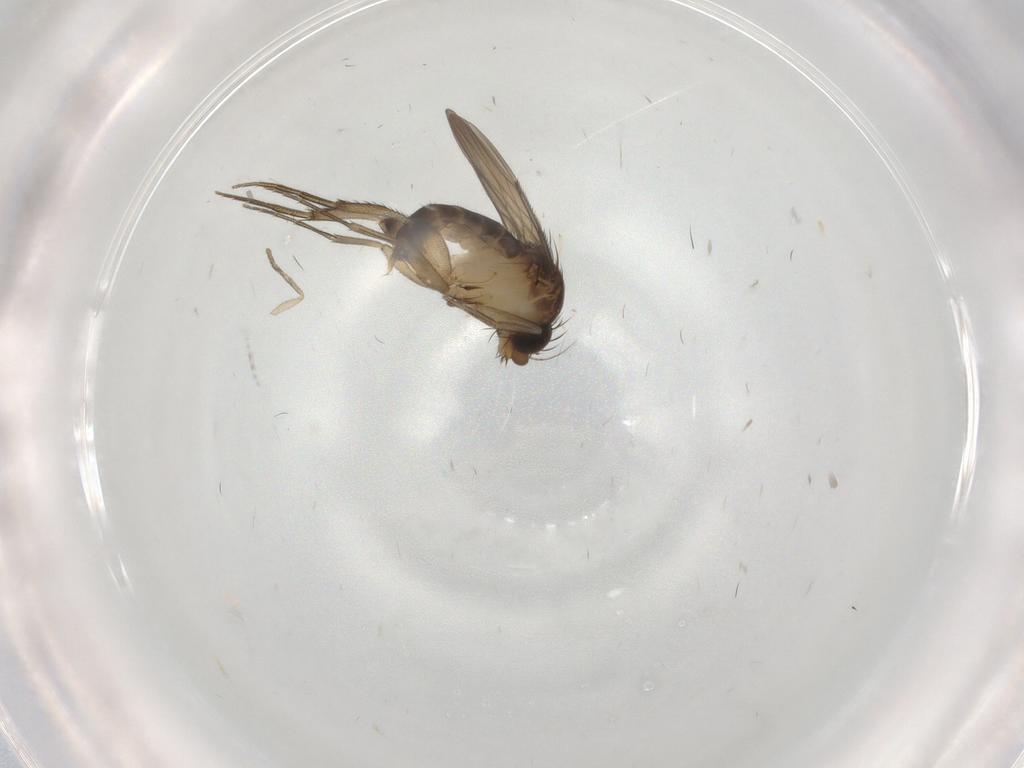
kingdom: Animalia
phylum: Arthropoda
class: Insecta
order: Diptera
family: Phoridae
